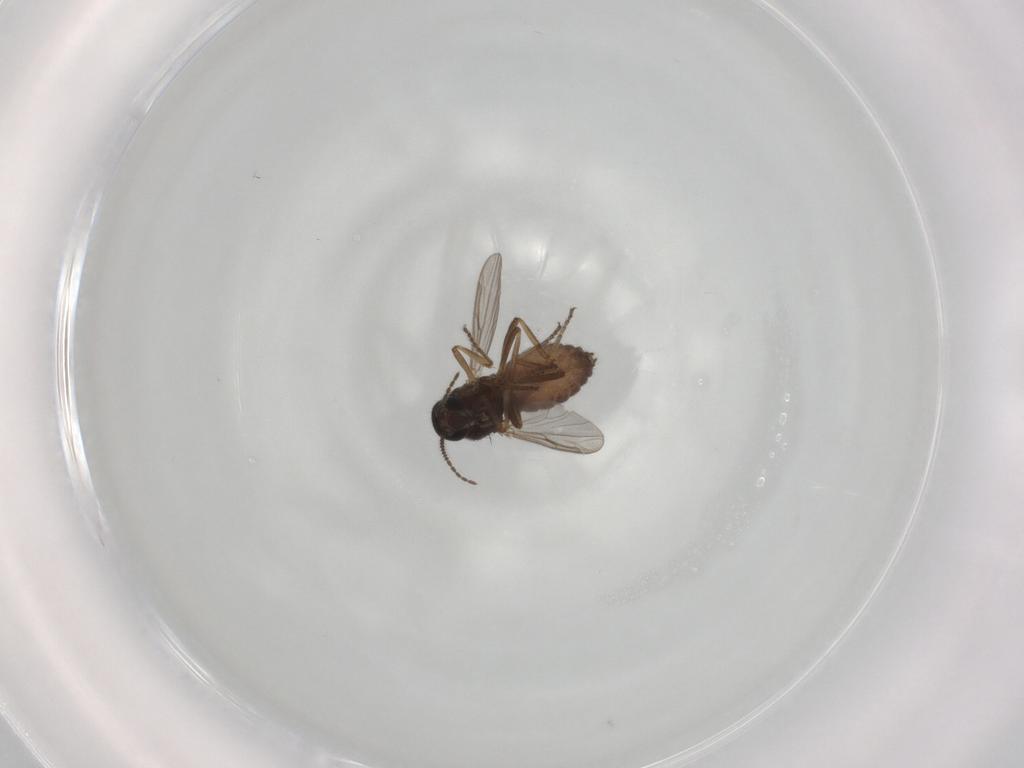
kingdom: Animalia
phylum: Arthropoda
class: Insecta
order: Diptera
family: Ceratopogonidae
